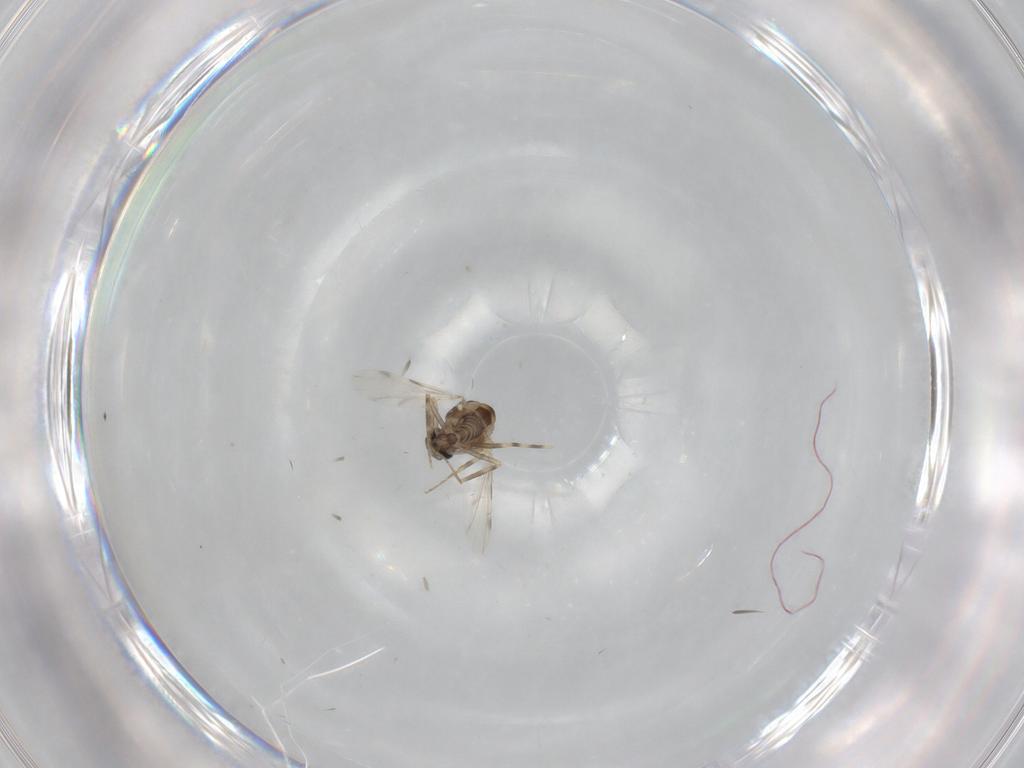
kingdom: Animalia
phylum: Arthropoda
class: Insecta
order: Diptera
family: Ceratopogonidae
